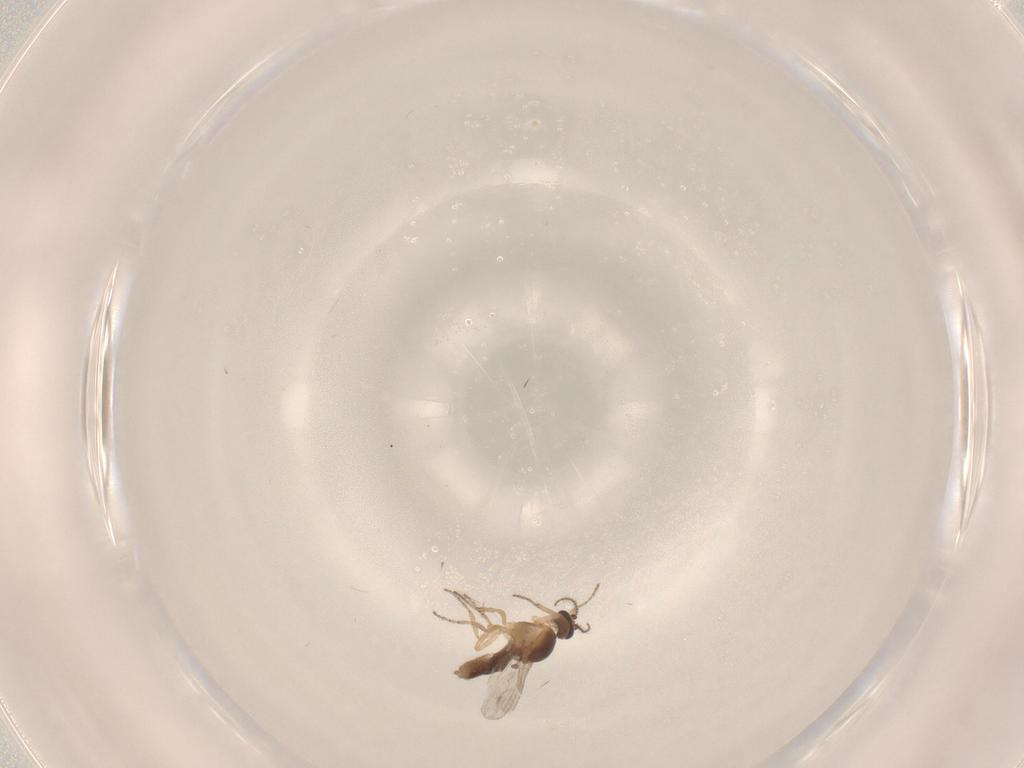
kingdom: Animalia
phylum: Arthropoda
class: Insecta
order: Diptera
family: Ceratopogonidae
